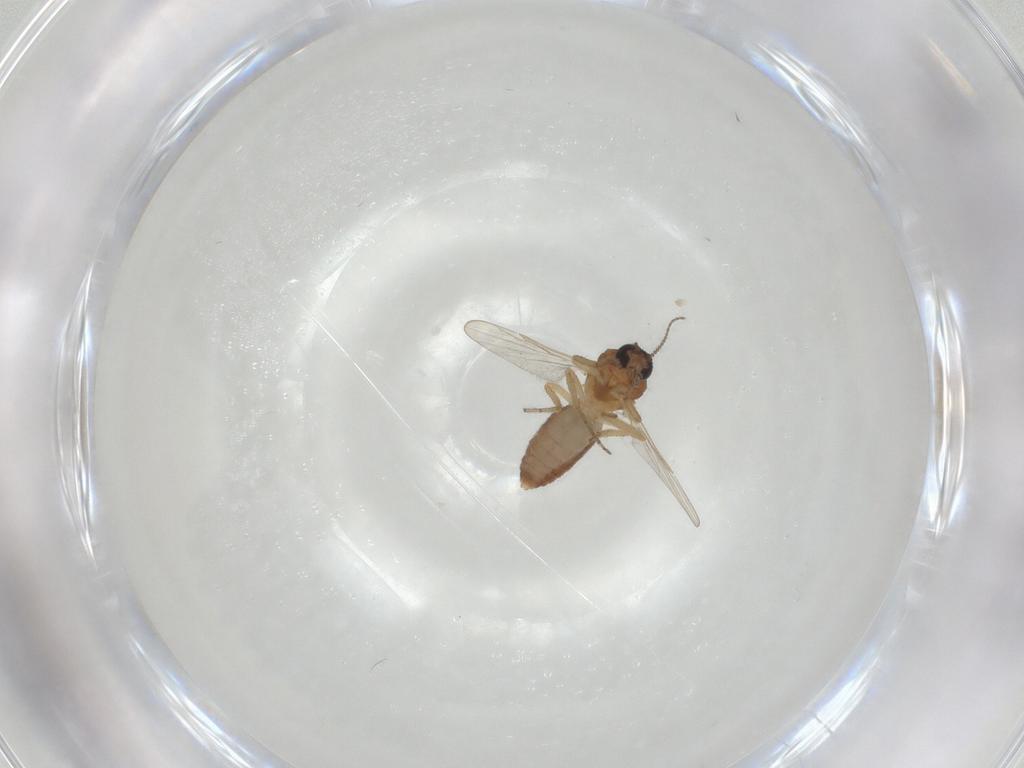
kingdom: Animalia
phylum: Arthropoda
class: Insecta
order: Diptera
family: Ceratopogonidae
